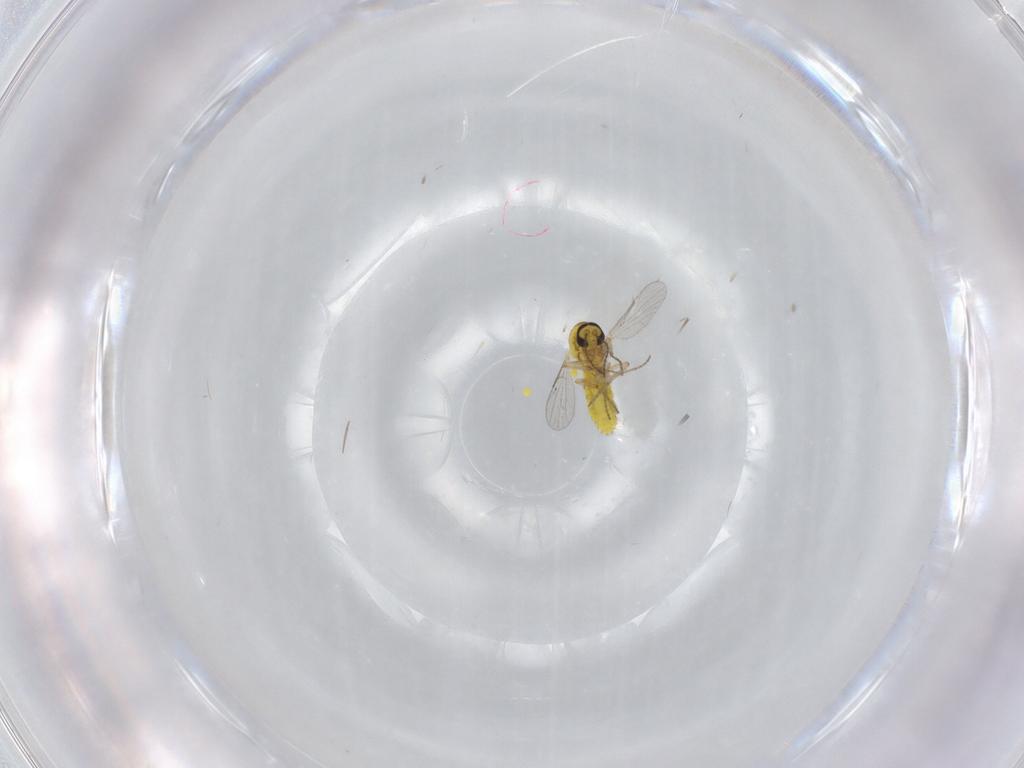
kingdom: Animalia
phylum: Arthropoda
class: Insecta
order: Diptera
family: Ceratopogonidae
